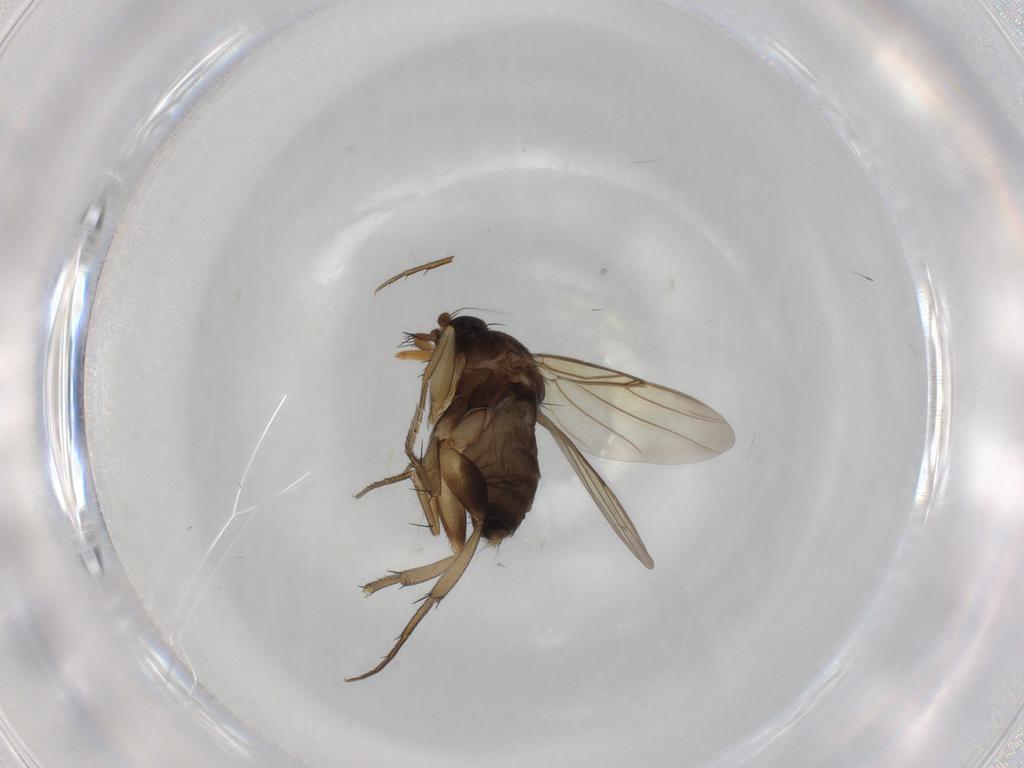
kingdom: Animalia
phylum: Arthropoda
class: Insecta
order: Diptera
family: Phoridae
